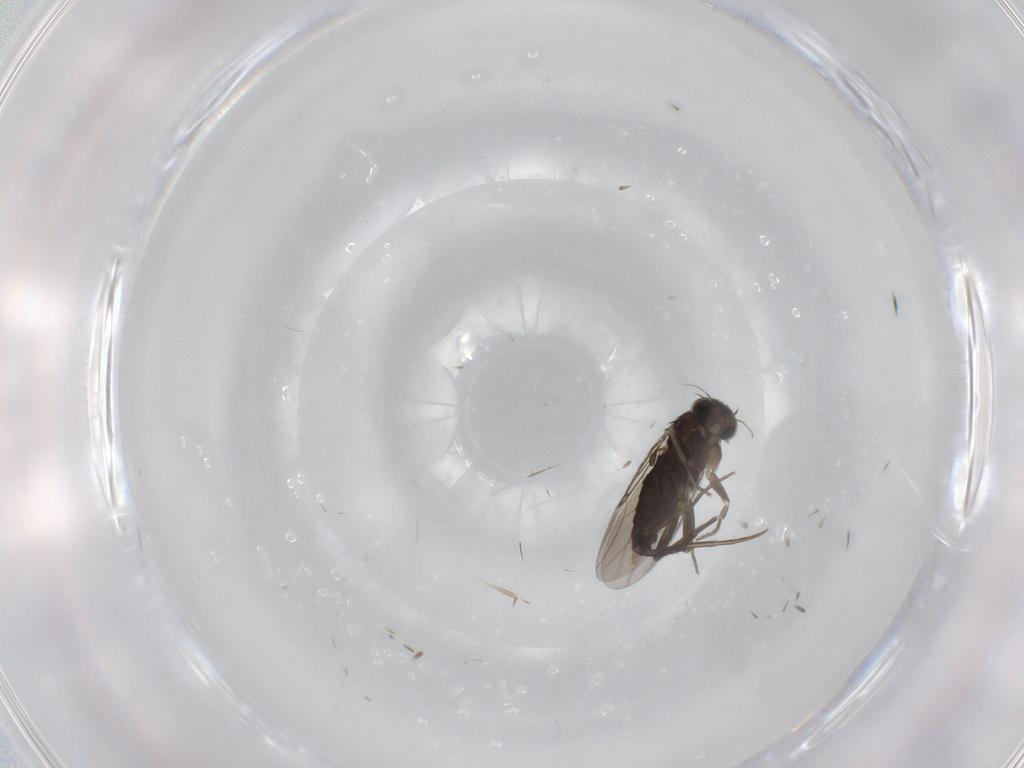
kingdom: Animalia
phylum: Arthropoda
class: Insecta
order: Diptera
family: Phoridae
